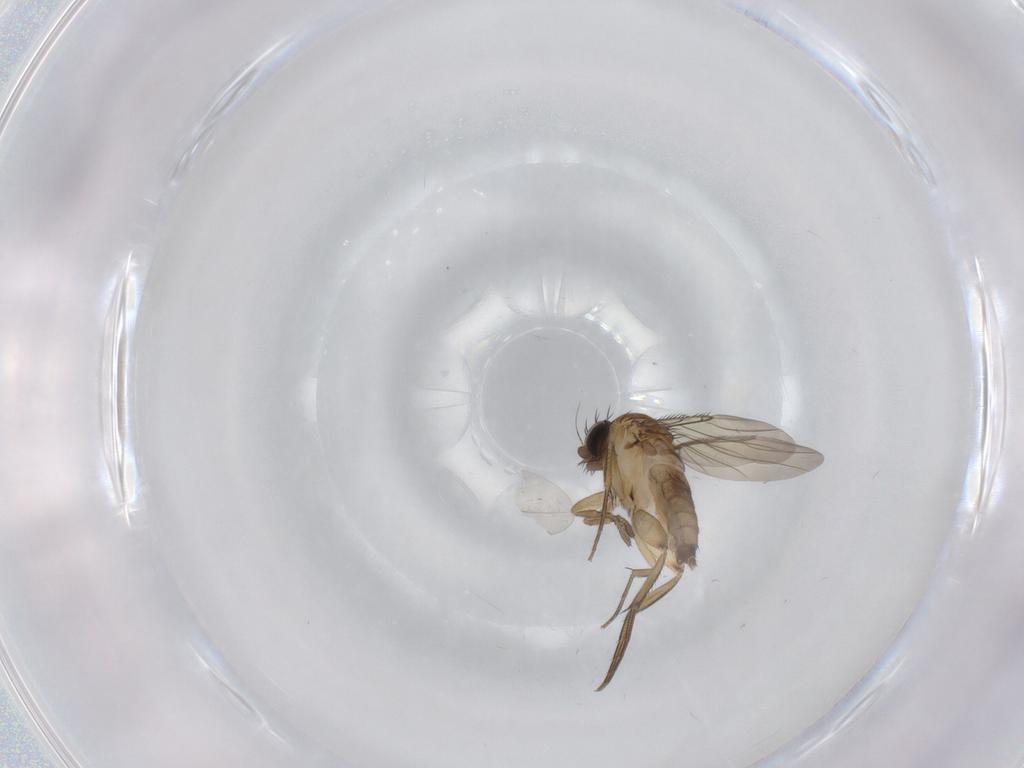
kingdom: Animalia
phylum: Arthropoda
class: Insecta
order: Diptera
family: Phoridae
